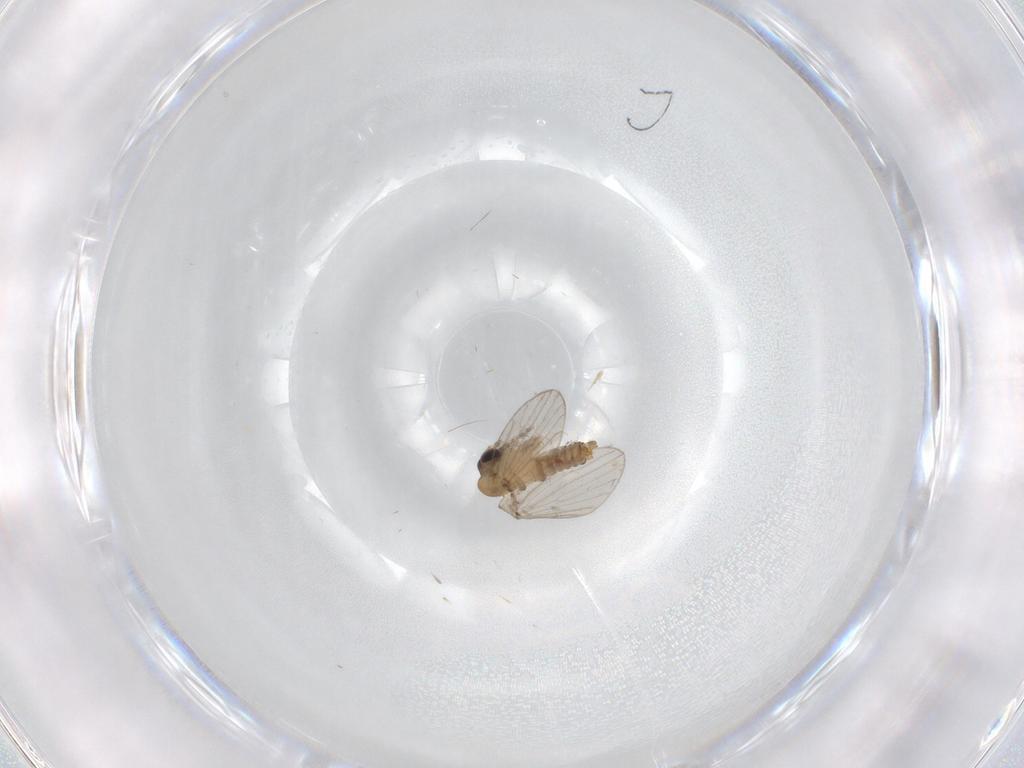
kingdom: Animalia
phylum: Arthropoda
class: Insecta
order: Diptera
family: Psychodidae
